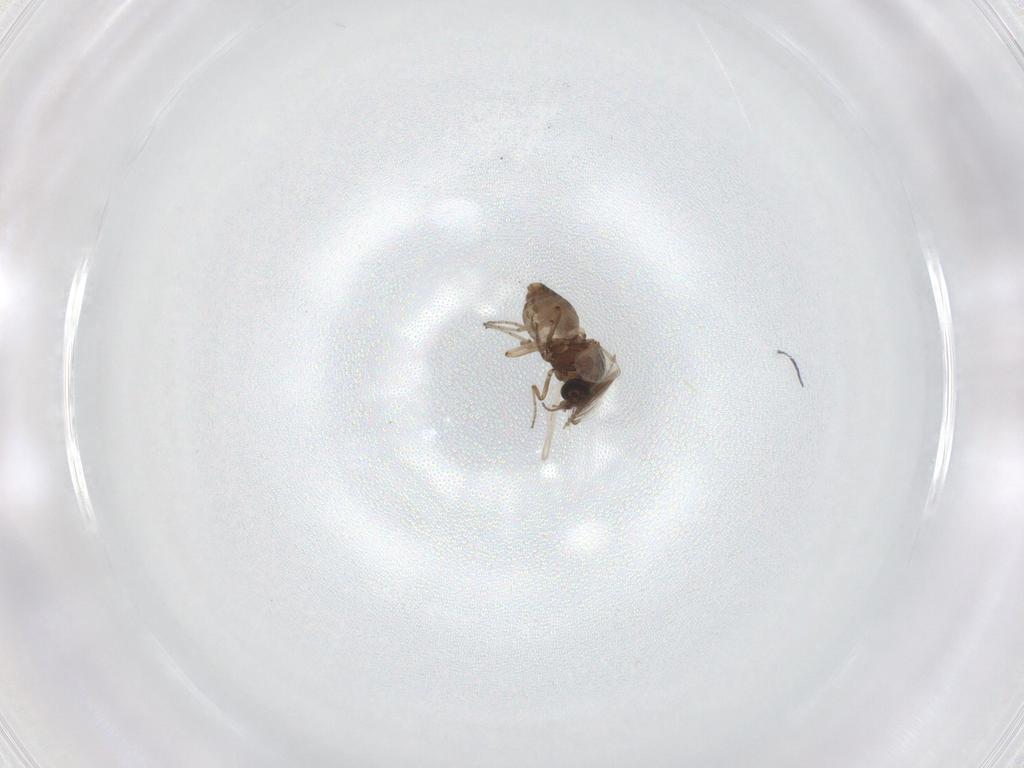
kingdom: Animalia
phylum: Arthropoda
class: Insecta
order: Diptera
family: Ceratopogonidae
